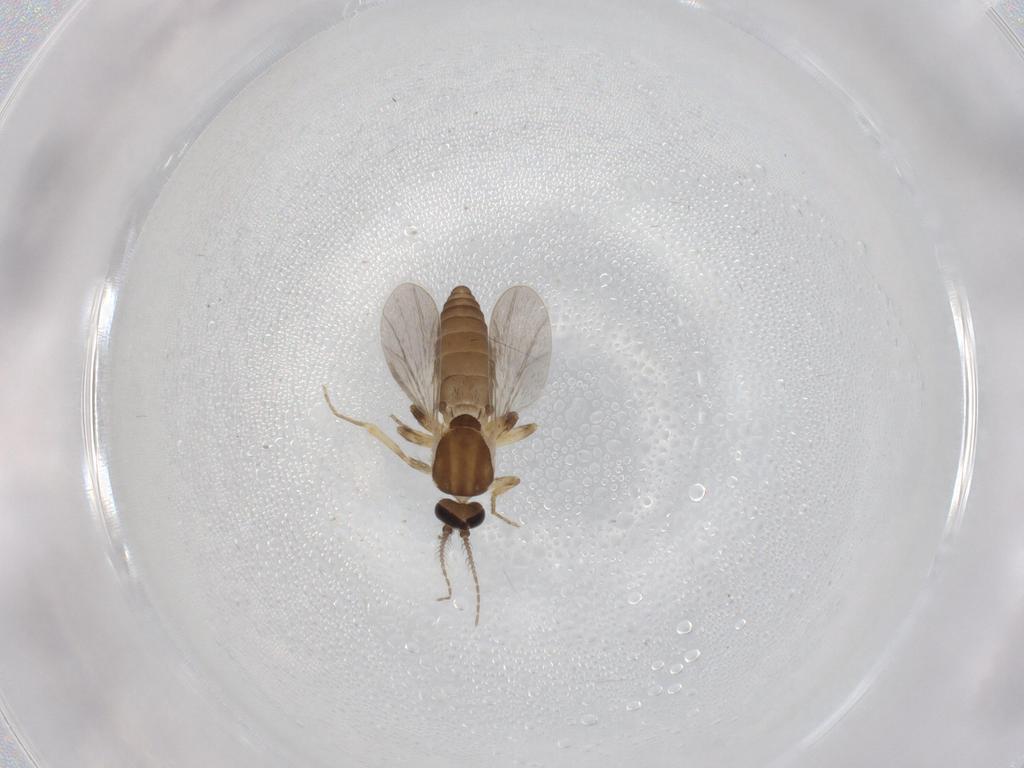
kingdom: Animalia
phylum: Arthropoda
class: Insecta
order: Diptera
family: Ceratopogonidae
